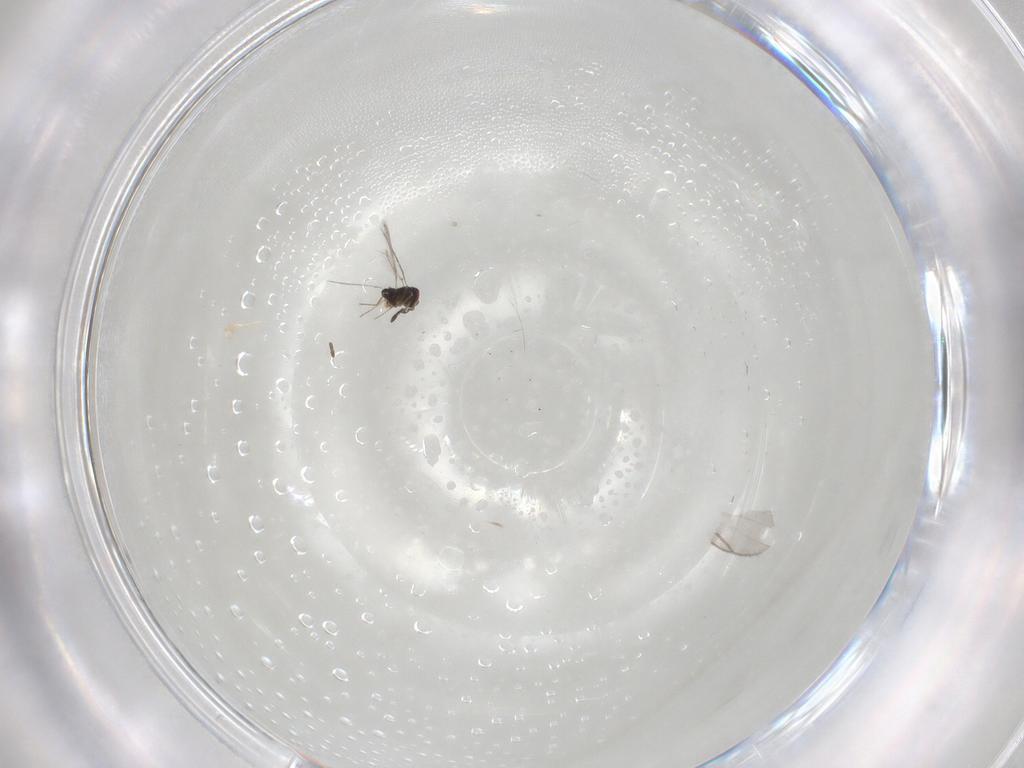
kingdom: Animalia
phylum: Arthropoda
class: Insecta
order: Hymenoptera
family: Mymaridae
